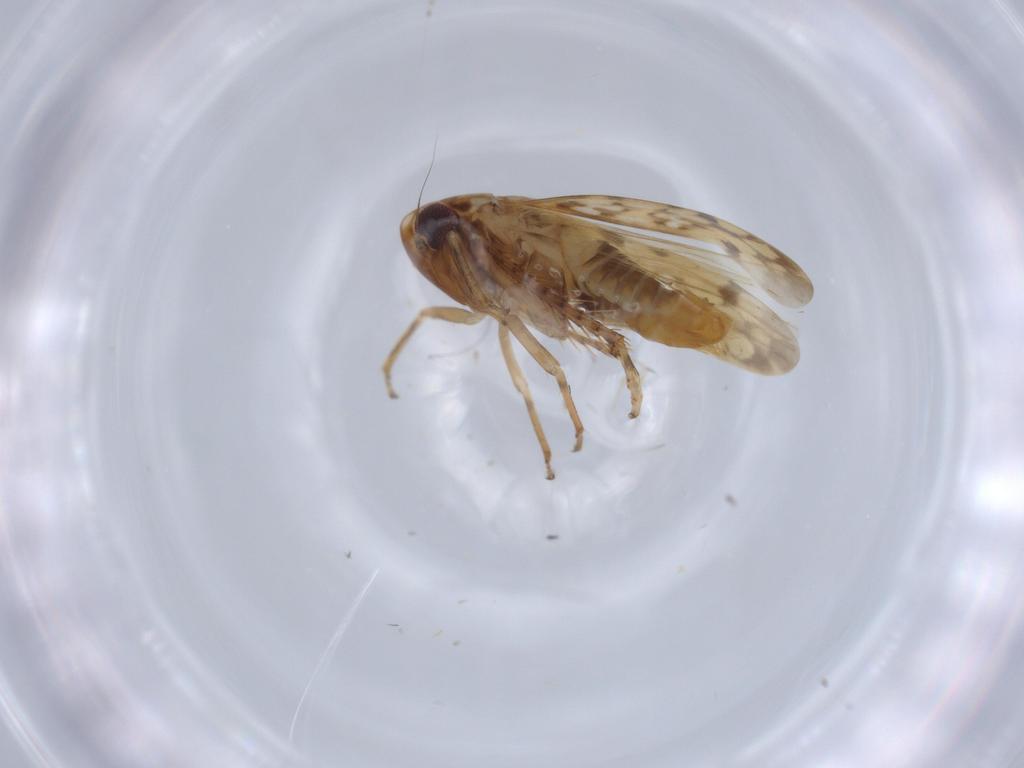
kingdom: Animalia
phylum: Arthropoda
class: Insecta
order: Hemiptera
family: Cicadellidae
